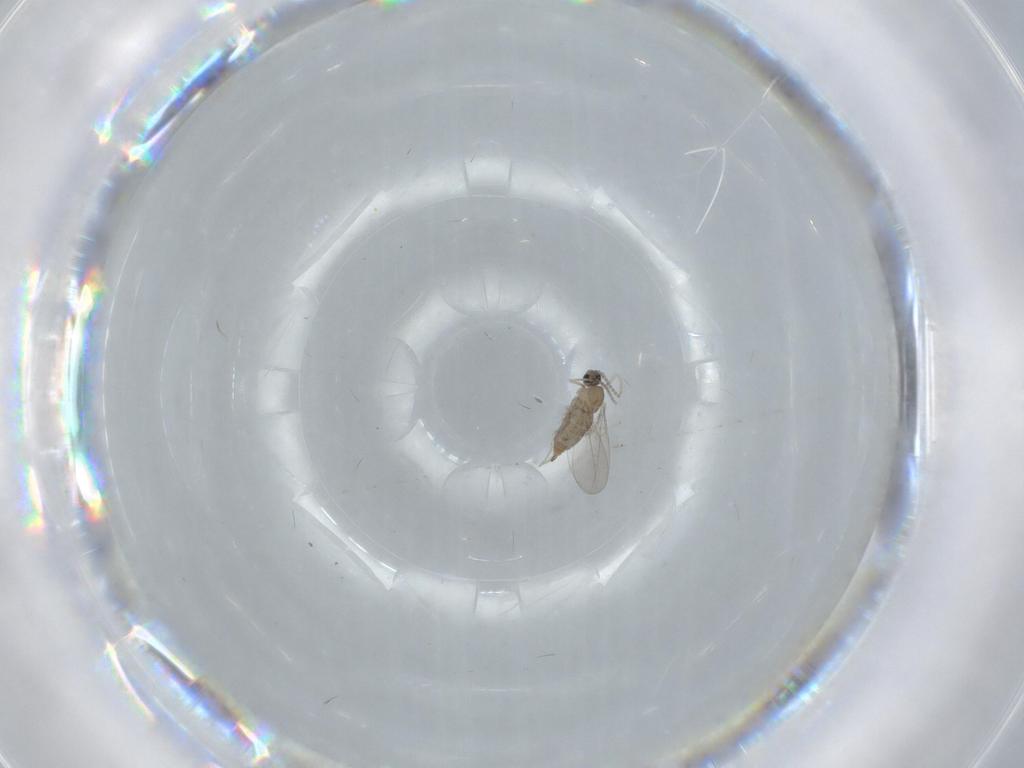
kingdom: Animalia
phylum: Arthropoda
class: Insecta
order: Diptera
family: Cecidomyiidae
